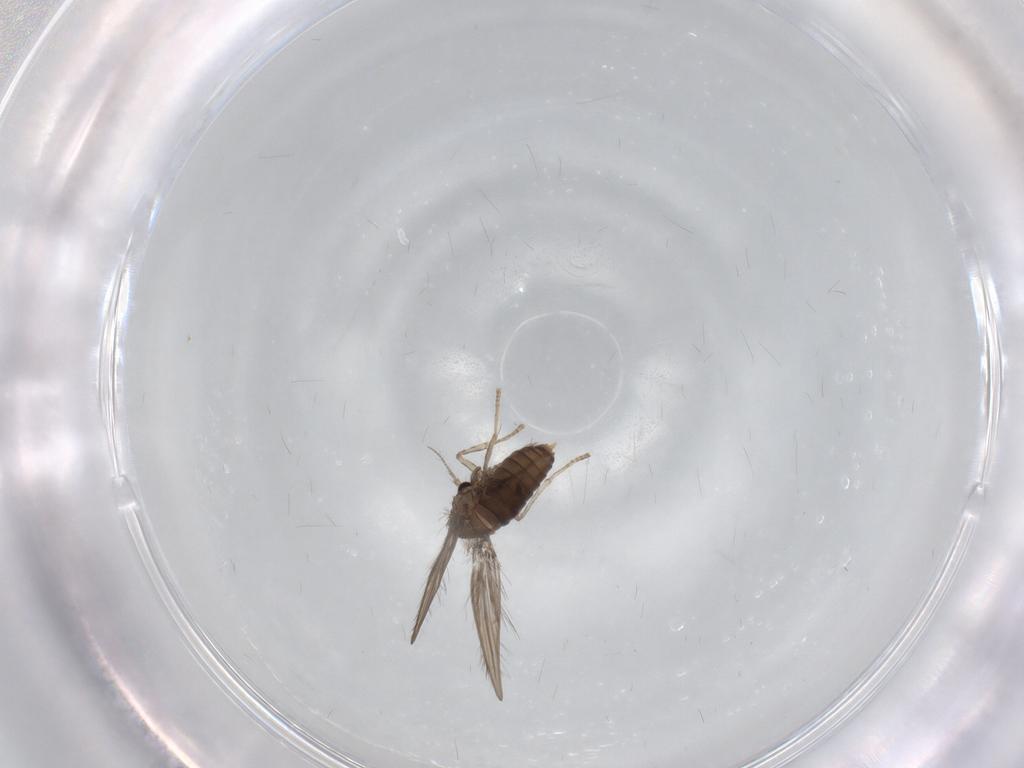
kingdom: Animalia
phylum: Arthropoda
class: Insecta
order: Diptera
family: Psychodidae
